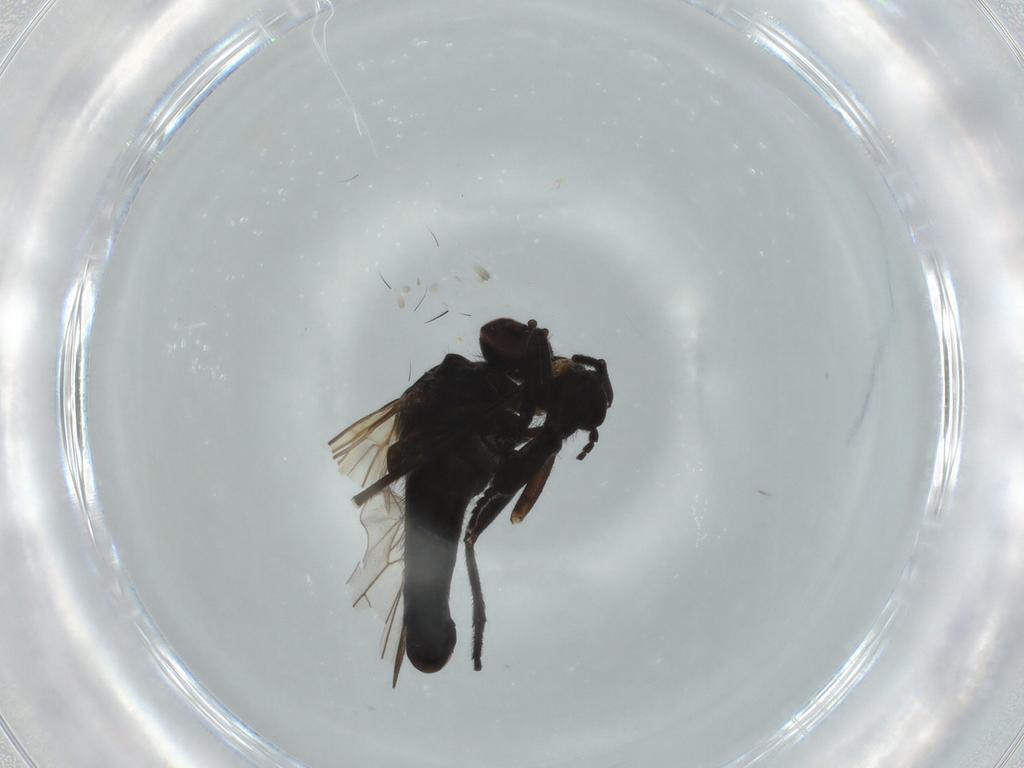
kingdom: Animalia
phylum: Arthropoda
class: Insecta
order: Diptera
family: Empididae
